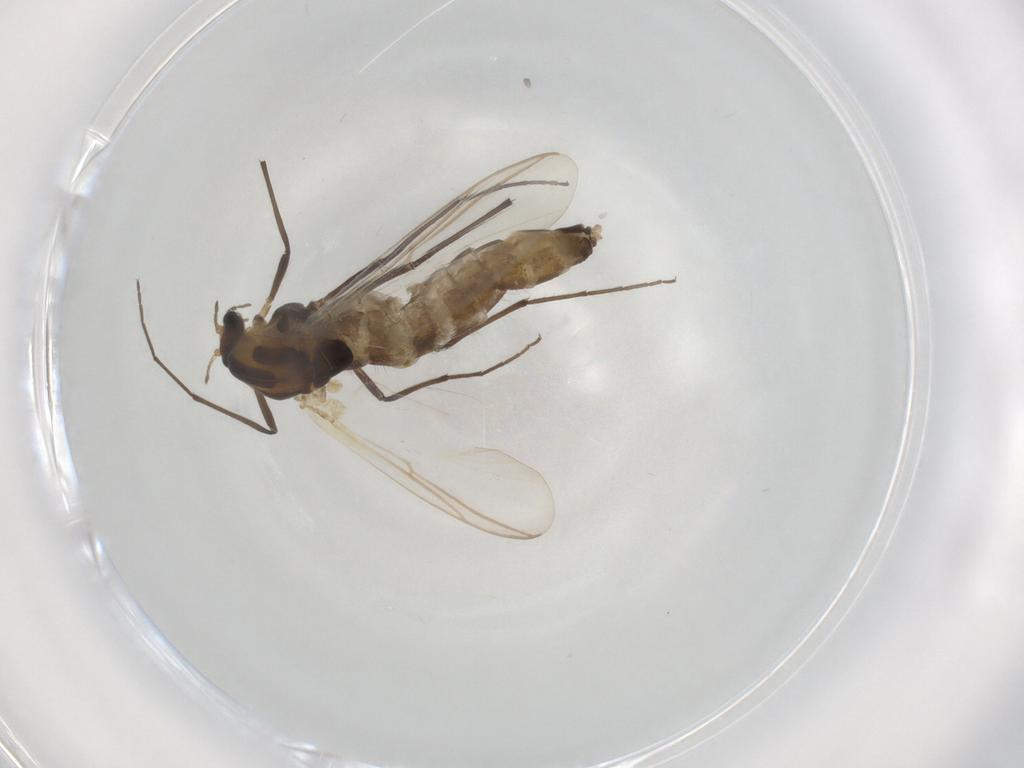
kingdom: Animalia
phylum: Arthropoda
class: Insecta
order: Diptera
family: Chironomidae
